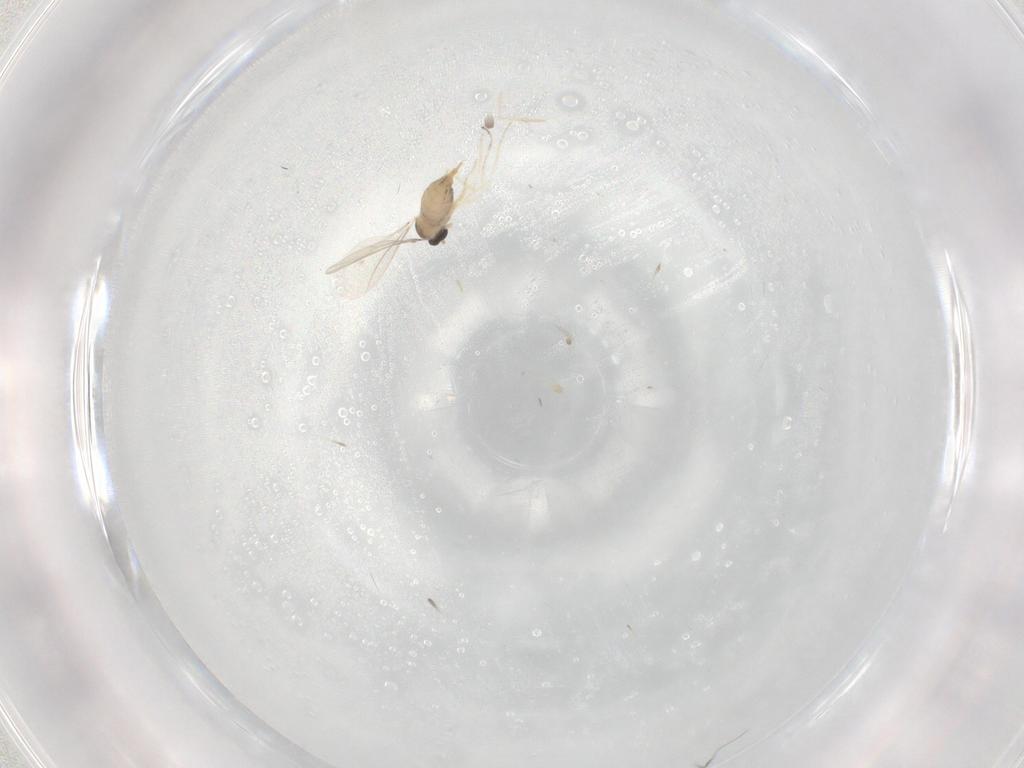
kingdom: Animalia
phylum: Arthropoda
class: Insecta
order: Diptera
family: Cecidomyiidae
